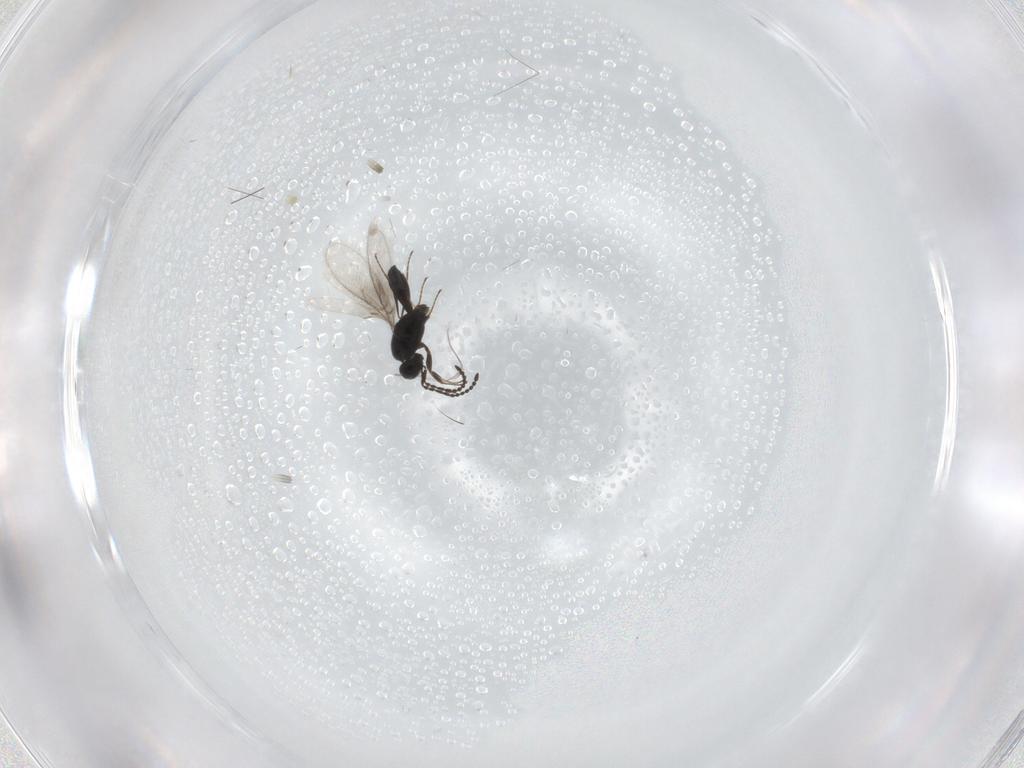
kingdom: Animalia
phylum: Arthropoda
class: Insecta
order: Hymenoptera
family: Scelionidae
